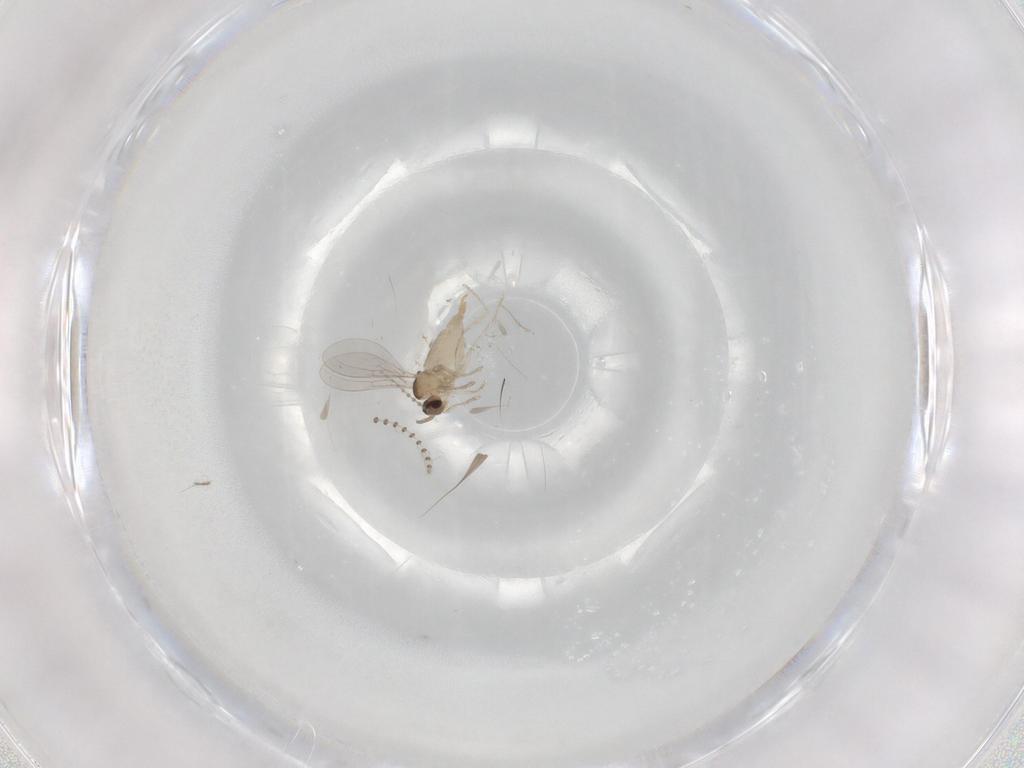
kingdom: Animalia
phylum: Arthropoda
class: Insecta
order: Diptera
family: Cecidomyiidae
